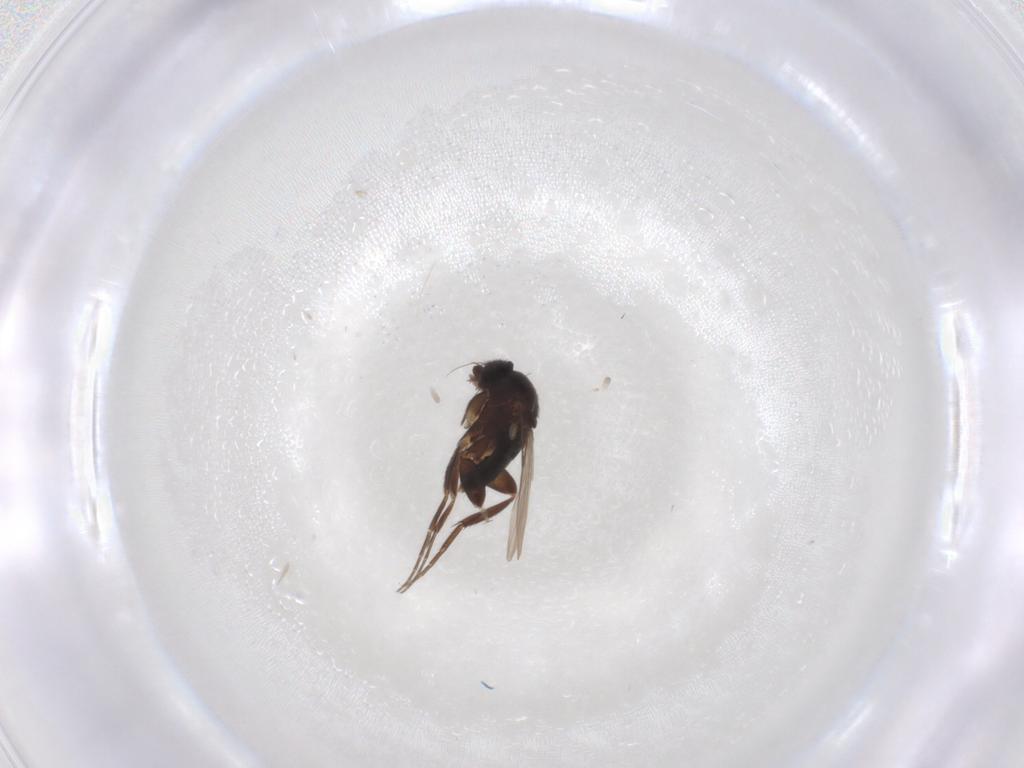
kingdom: Animalia
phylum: Arthropoda
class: Insecta
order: Diptera
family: Phoridae
